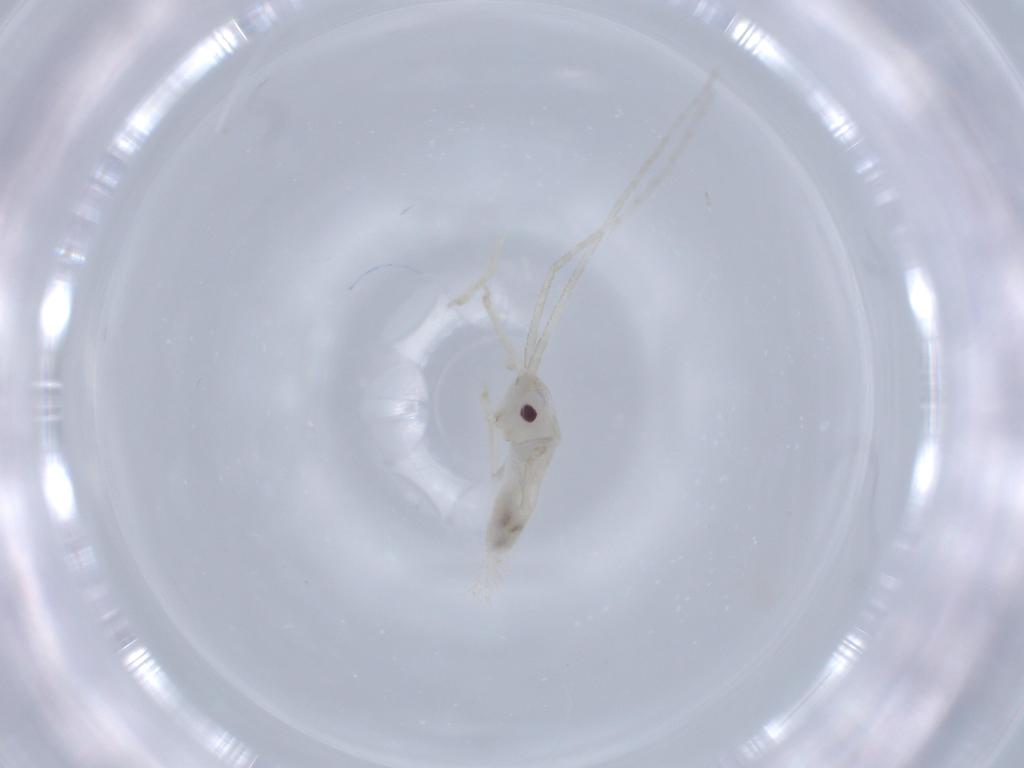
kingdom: Animalia
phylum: Arthropoda
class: Insecta
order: Orthoptera
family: Trigonidiidae
